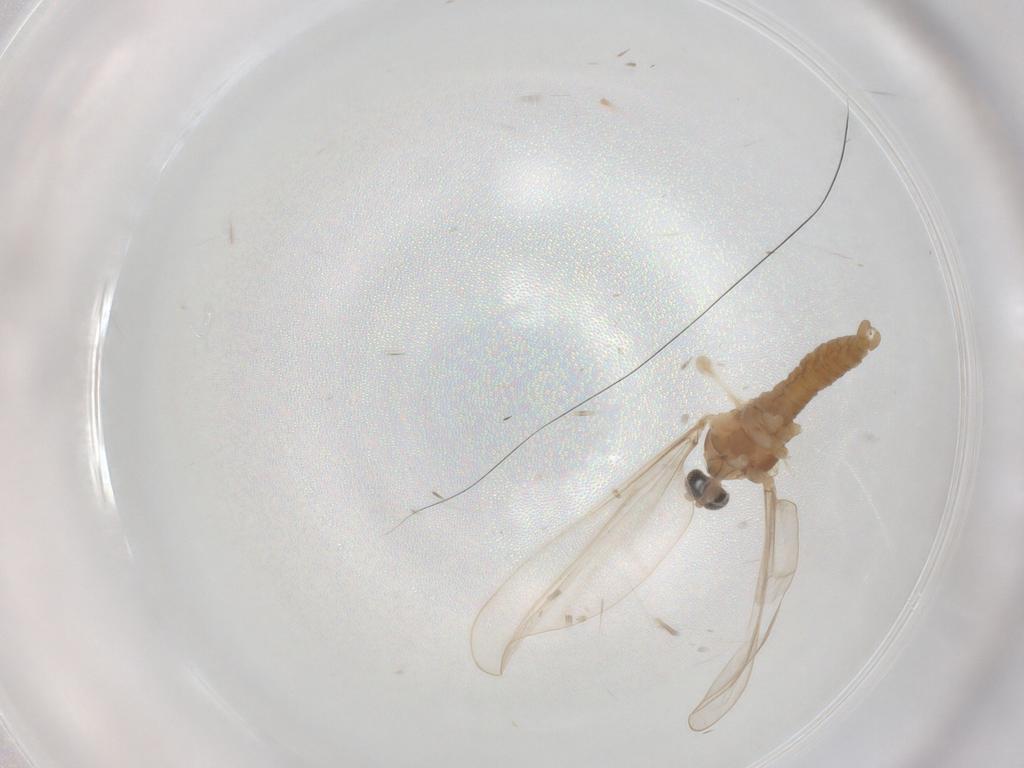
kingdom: Animalia
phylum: Arthropoda
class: Insecta
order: Diptera
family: Cecidomyiidae
